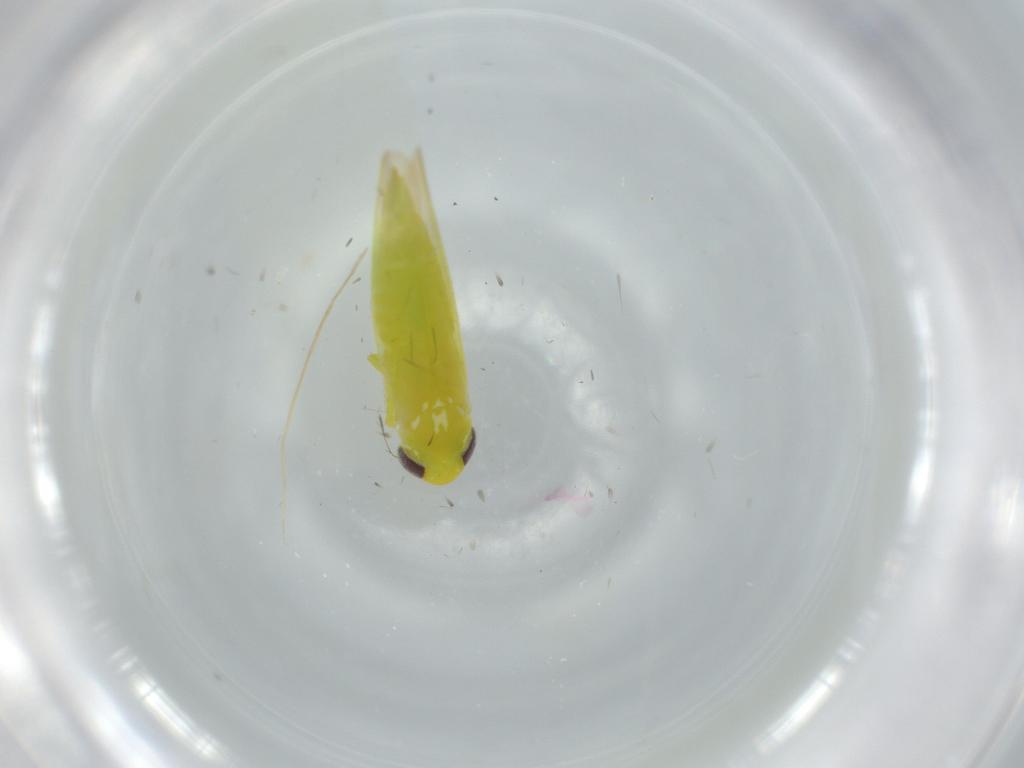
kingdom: Animalia
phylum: Arthropoda
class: Insecta
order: Hemiptera
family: Cicadellidae
